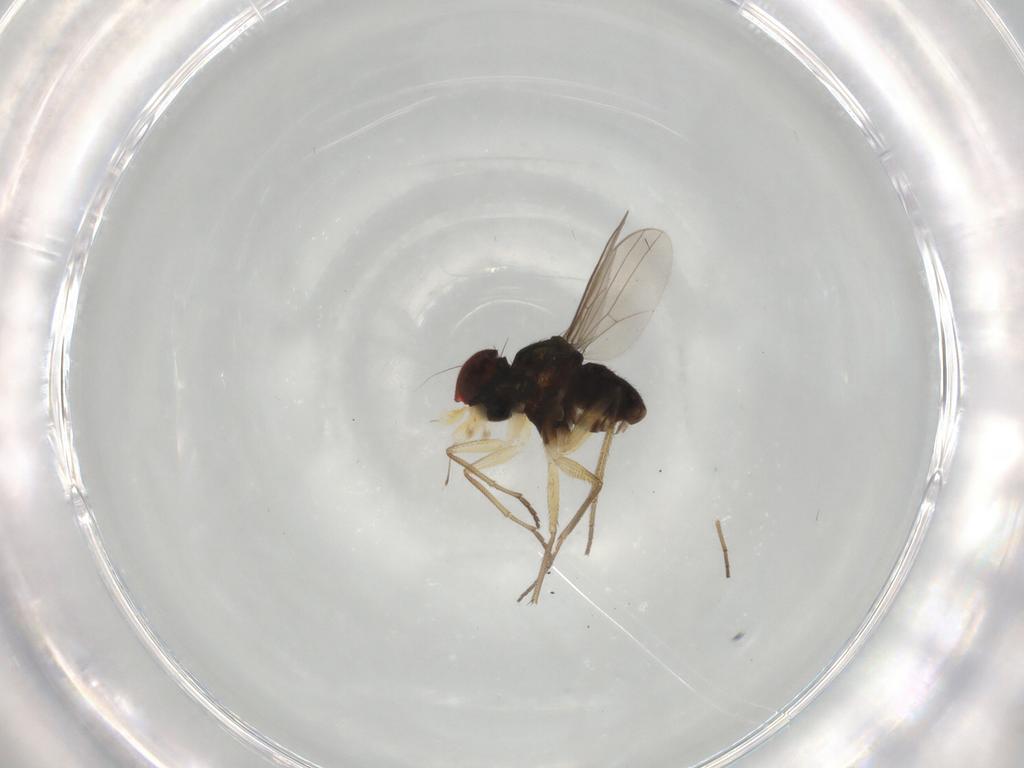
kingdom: Animalia
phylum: Arthropoda
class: Insecta
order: Diptera
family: Dolichopodidae
